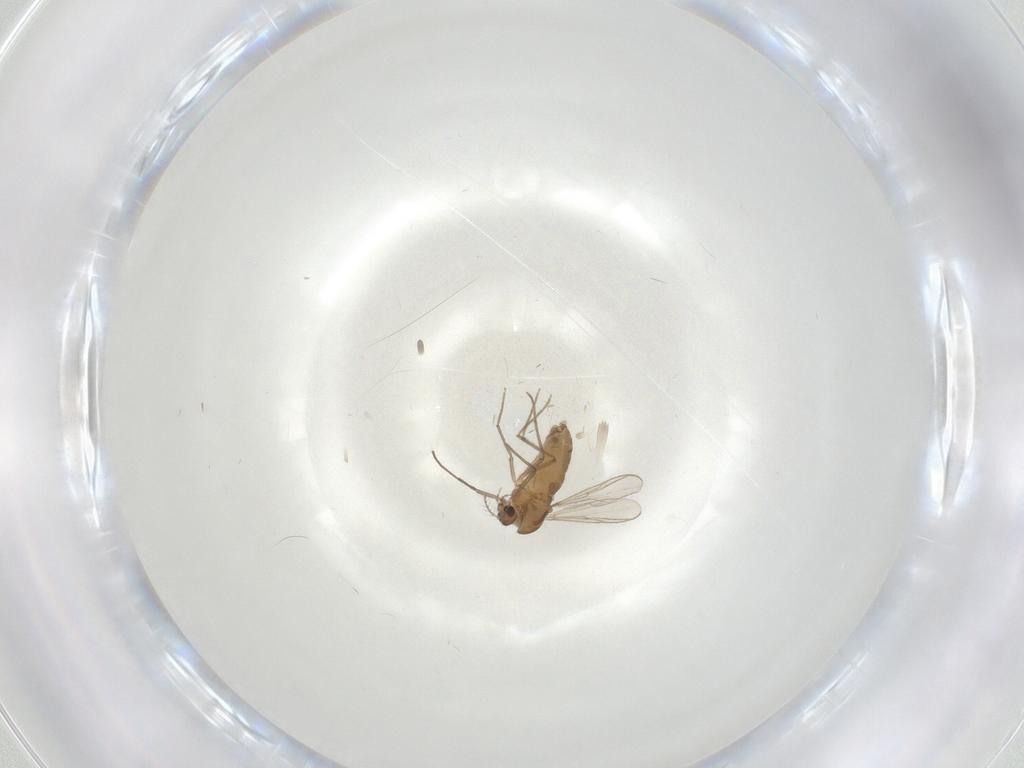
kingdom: Animalia
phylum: Arthropoda
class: Insecta
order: Diptera
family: Chironomidae
